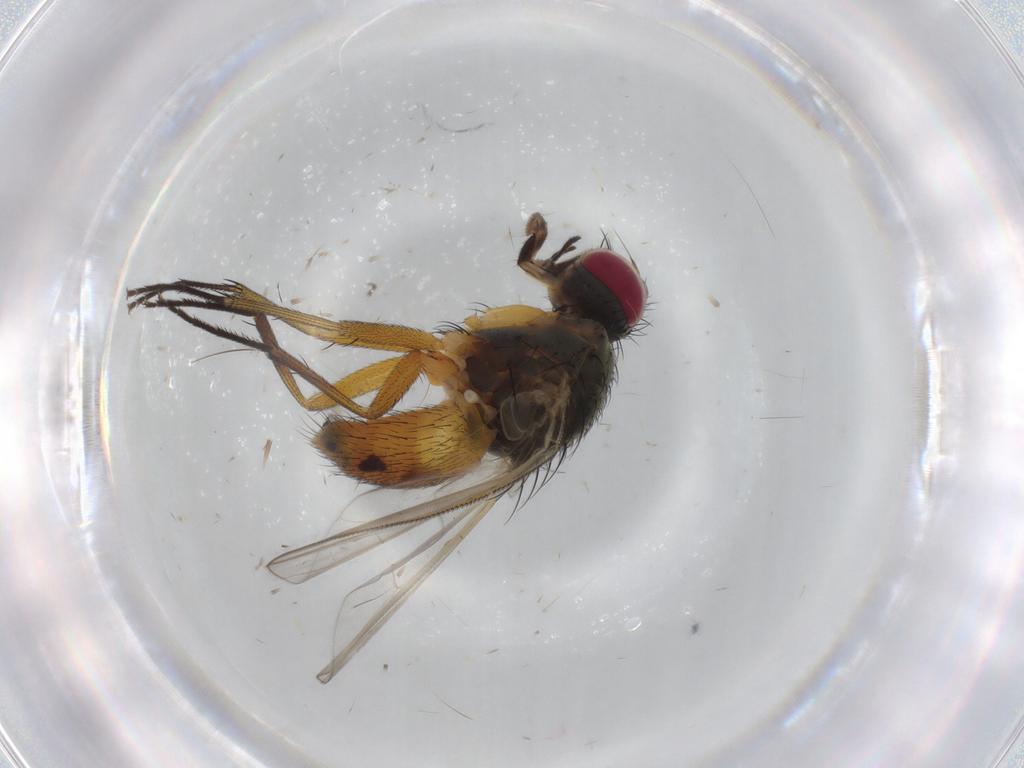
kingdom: Animalia
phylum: Arthropoda
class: Insecta
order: Diptera
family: Muscidae
